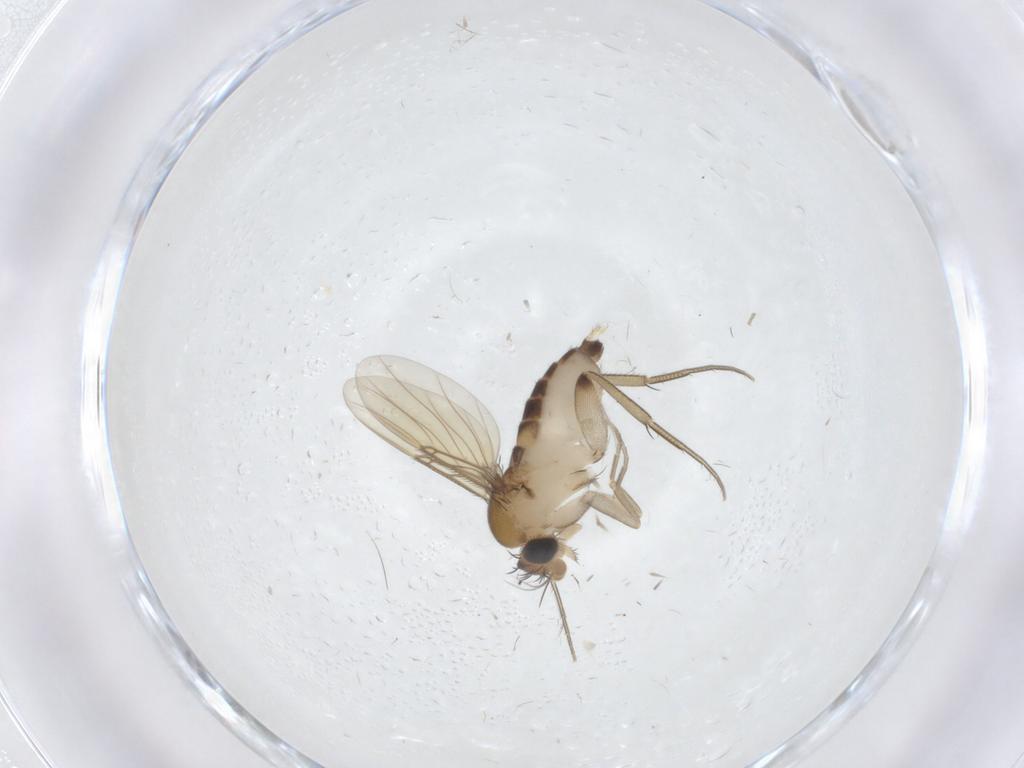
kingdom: Animalia
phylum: Arthropoda
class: Insecta
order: Diptera
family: Phoridae
